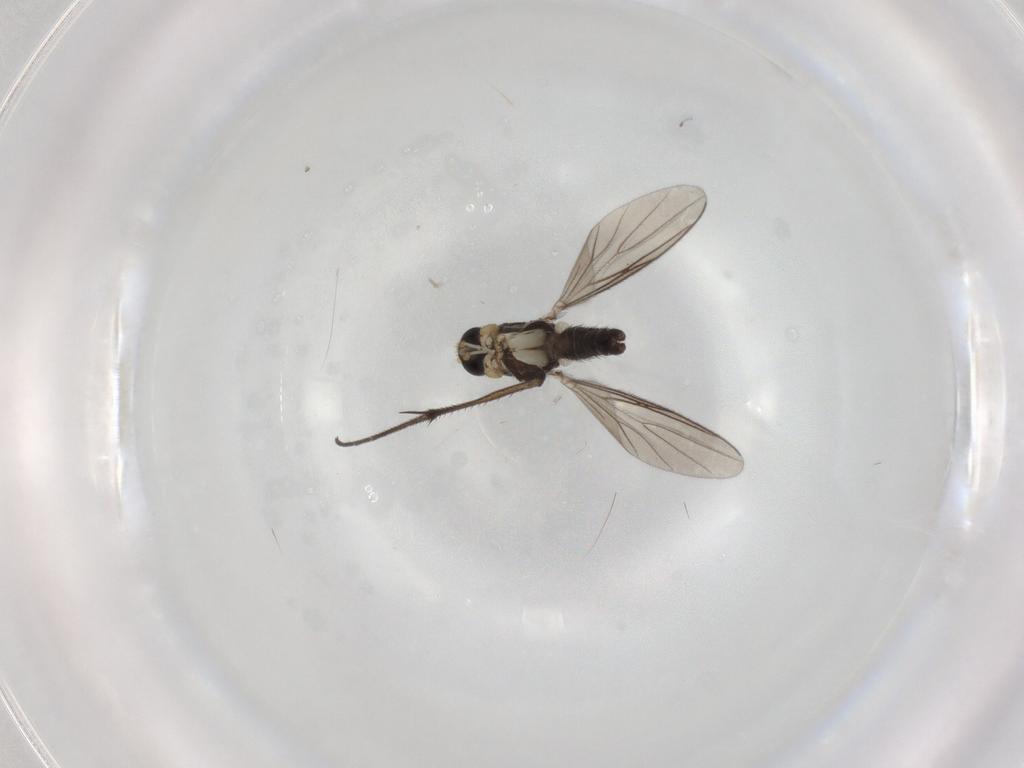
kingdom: Animalia
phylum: Arthropoda
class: Insecta
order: Diptera
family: Mycetophilidae
